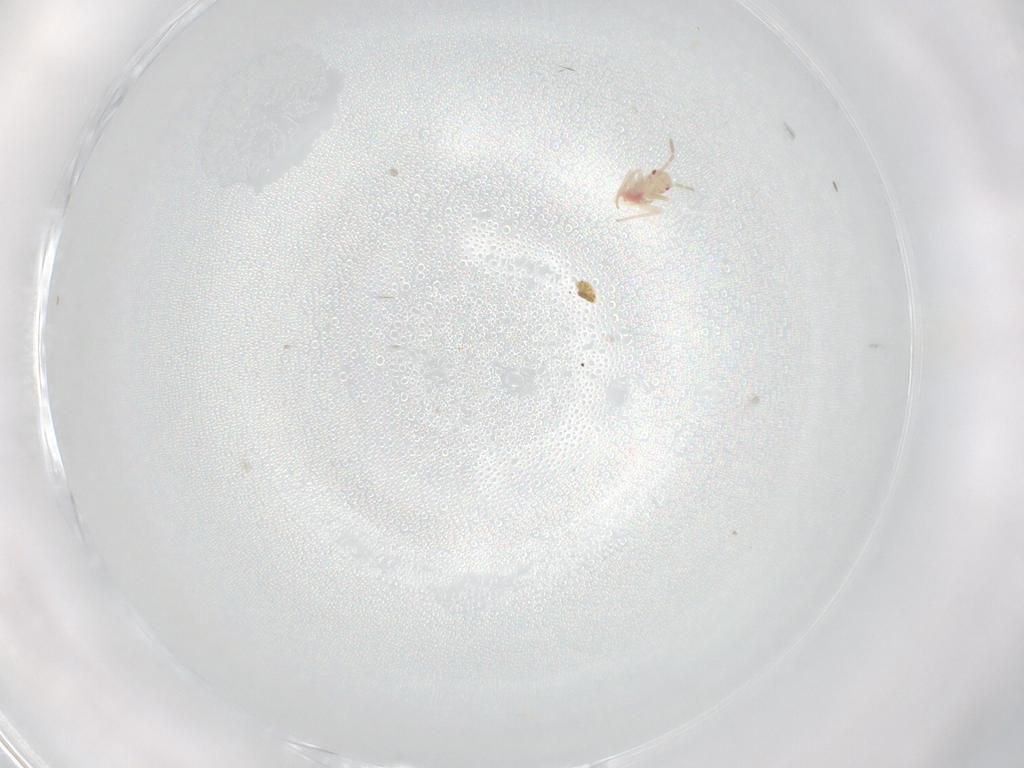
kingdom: Animalia
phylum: Arthropoda
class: Insecta
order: Hemiptera
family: Miridae
